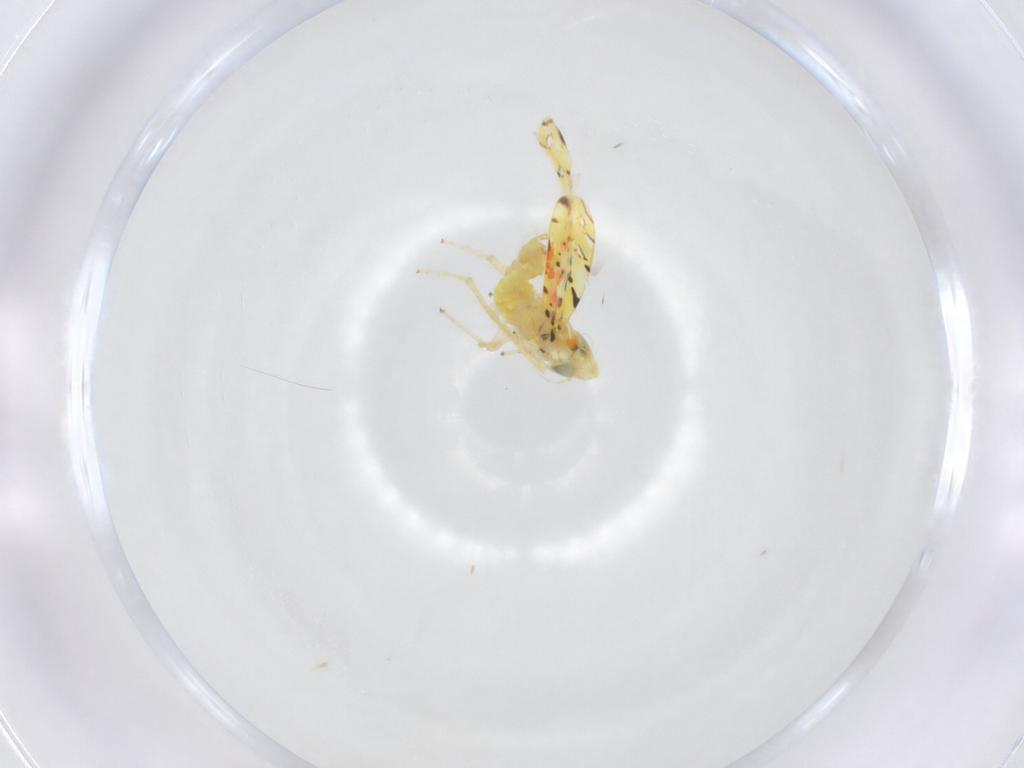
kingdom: Animalia
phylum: Arthropoda
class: Insecta
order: Hemiptera
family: Cicadellidae
